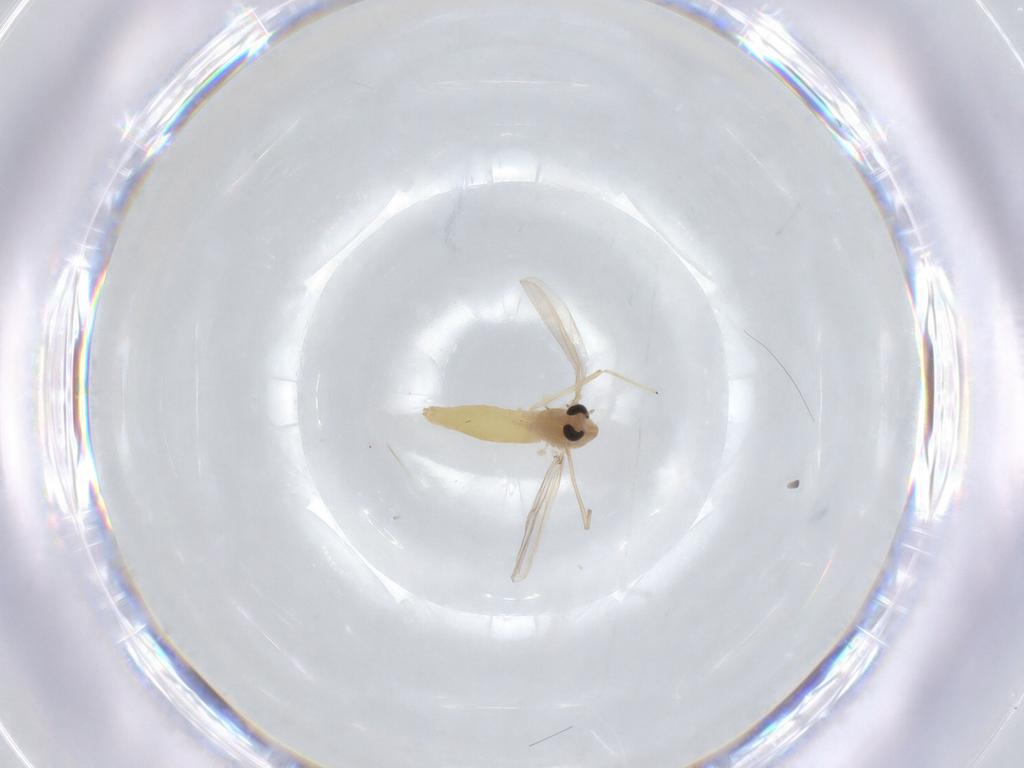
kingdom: Animalia
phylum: Arthropoda
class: Insecta
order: Diptera
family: Chironomidae
